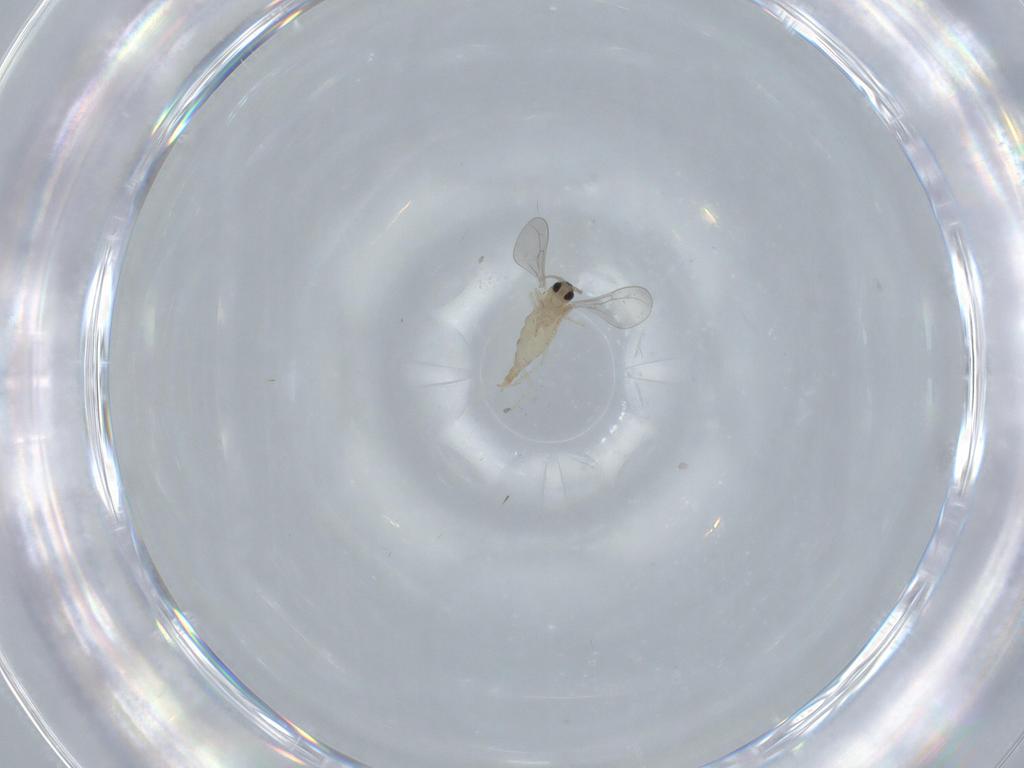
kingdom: Animalia
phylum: Arthropoda
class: Insecta
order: Diptera
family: Cecidomyiidae
